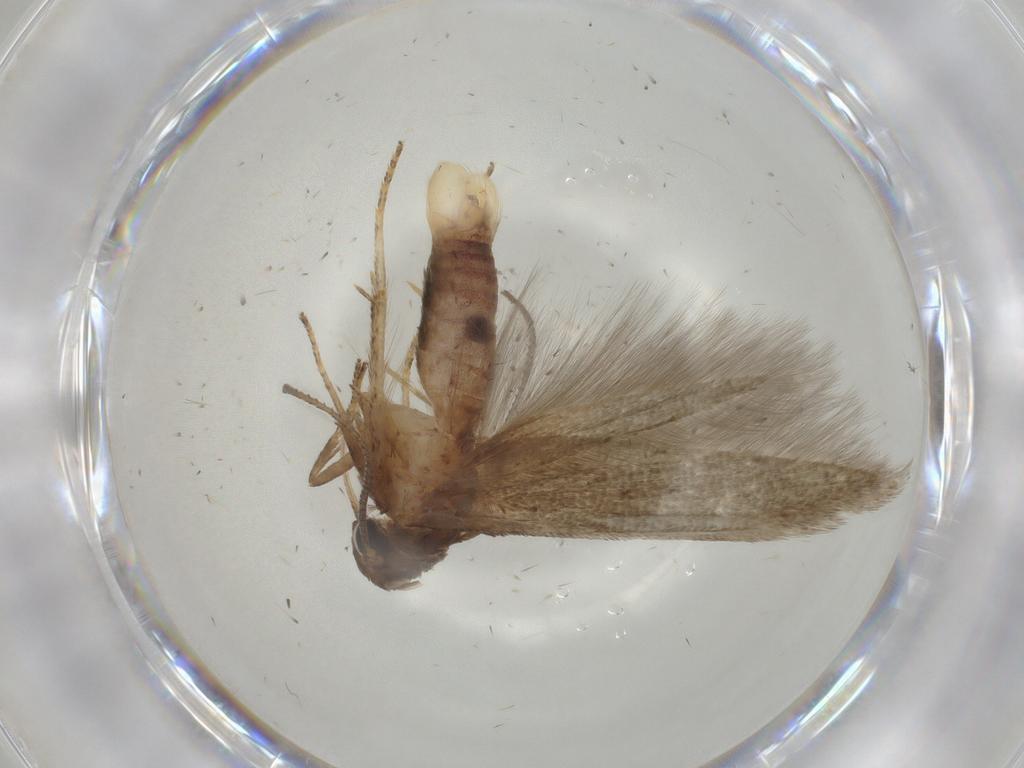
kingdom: Animalia
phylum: Arthropoda
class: Insecta
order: Lepidoptera
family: Blastobasidae
